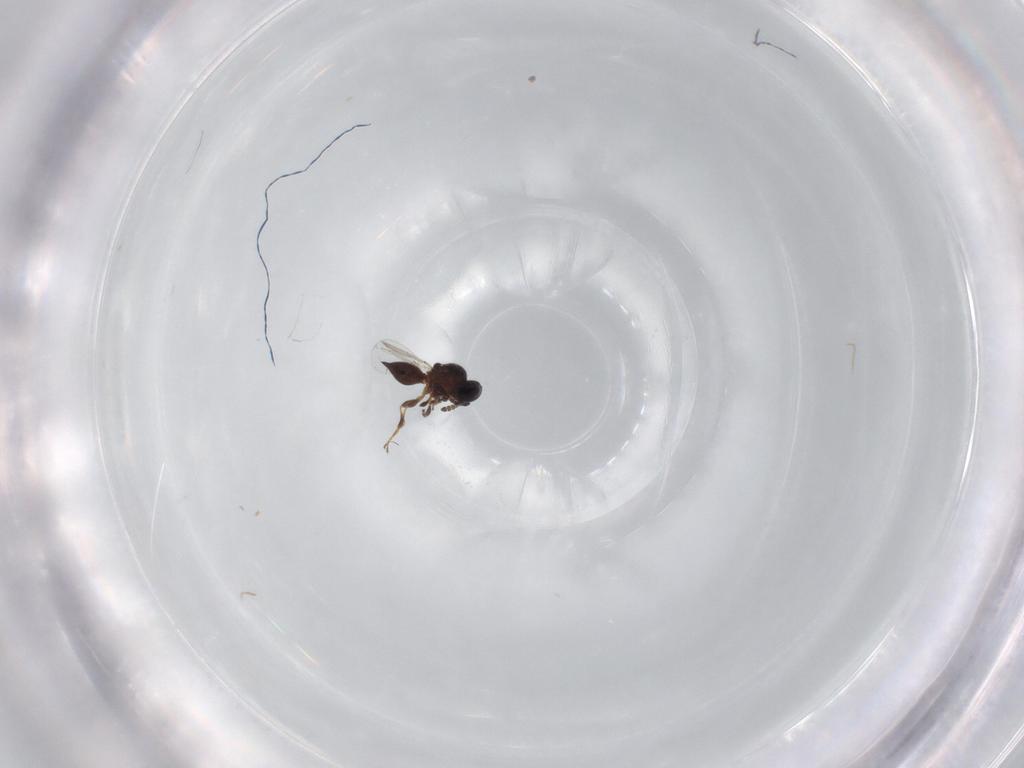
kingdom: Animalia
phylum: Arthropoda
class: Insecta
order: Hymenoptera
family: Platygastridae
